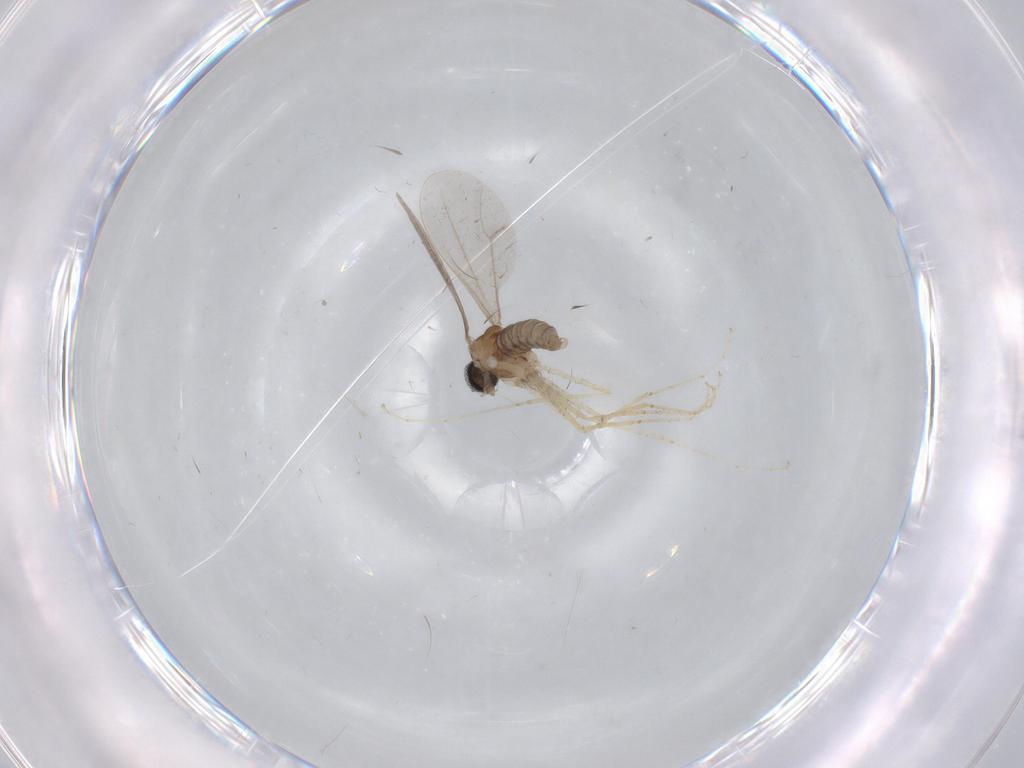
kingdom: Animalia
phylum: Arthropoda
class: Insecta
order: Diptera
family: Cecidomyiidae
